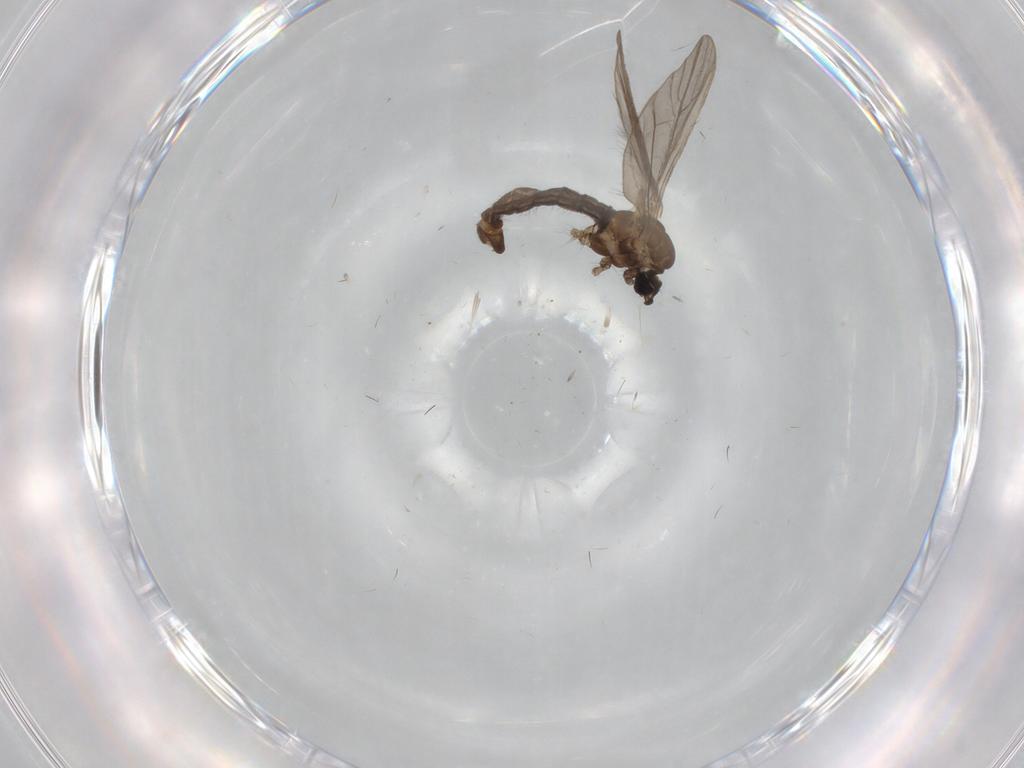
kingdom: Animalia
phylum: Arthropoda
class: Insecta
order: Diptera
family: Limoniidae
